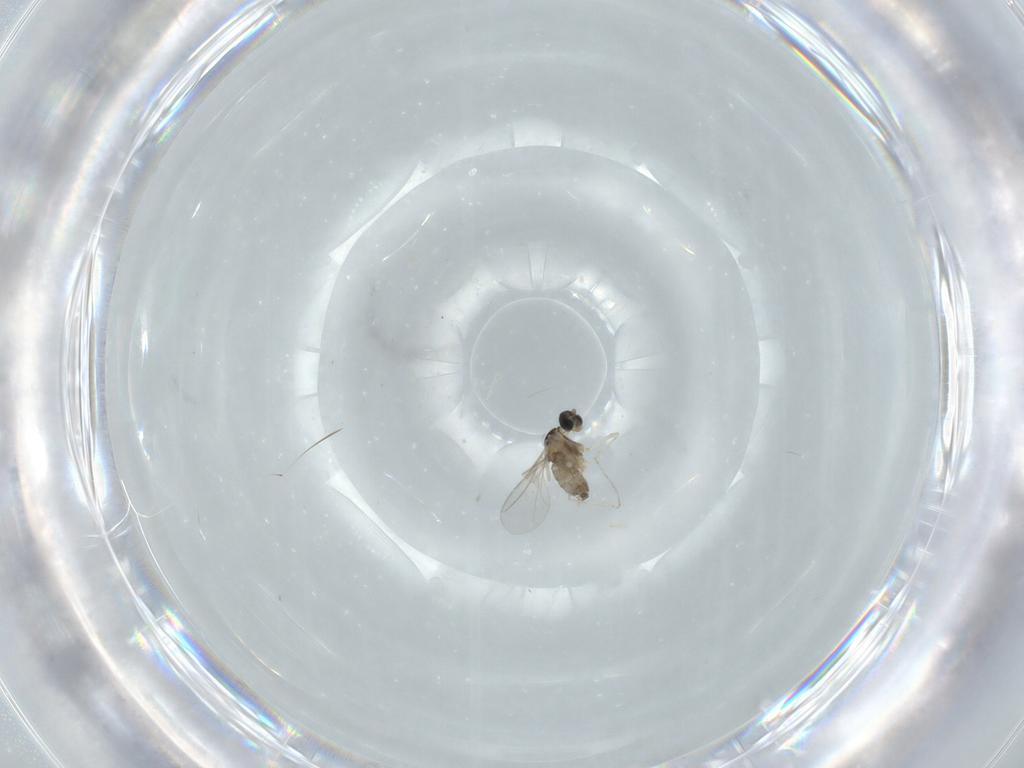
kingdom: Animalia
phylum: Arthropoda
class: Insecta
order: Diptera
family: Cecidomyiidae
